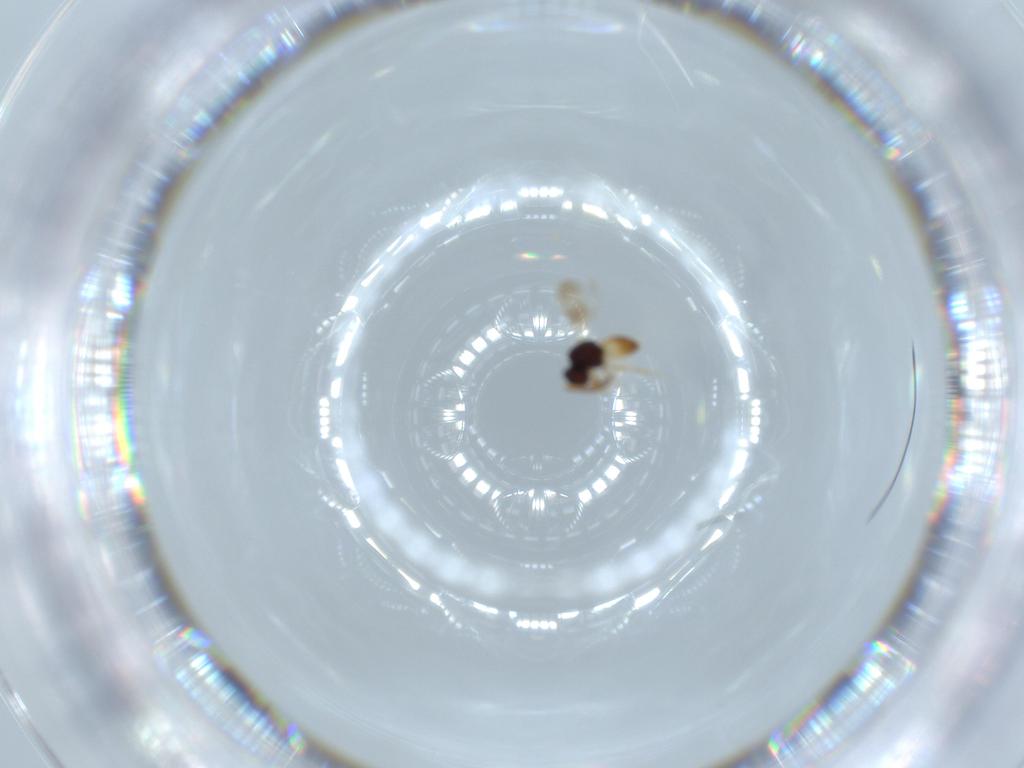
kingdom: Animalia
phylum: Arthropoda
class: Insecta
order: Hymenoptera
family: Ceraphronidae
